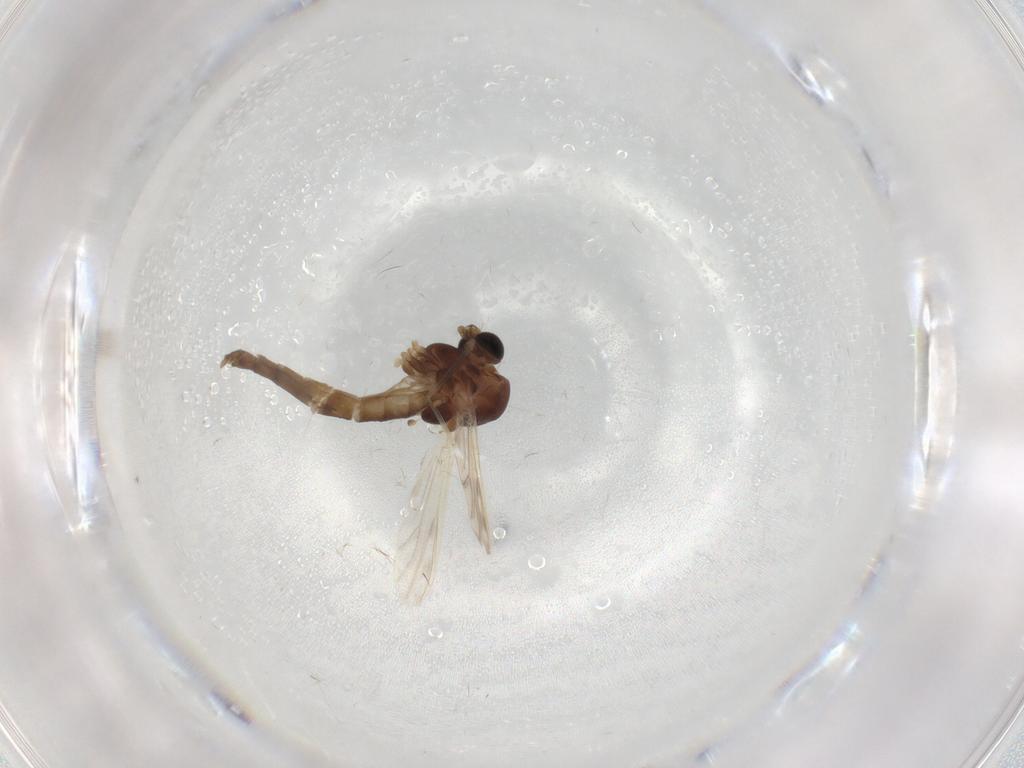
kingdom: Animalia
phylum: Arthropoda
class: Insecta
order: Diptera
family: Chironomidae
